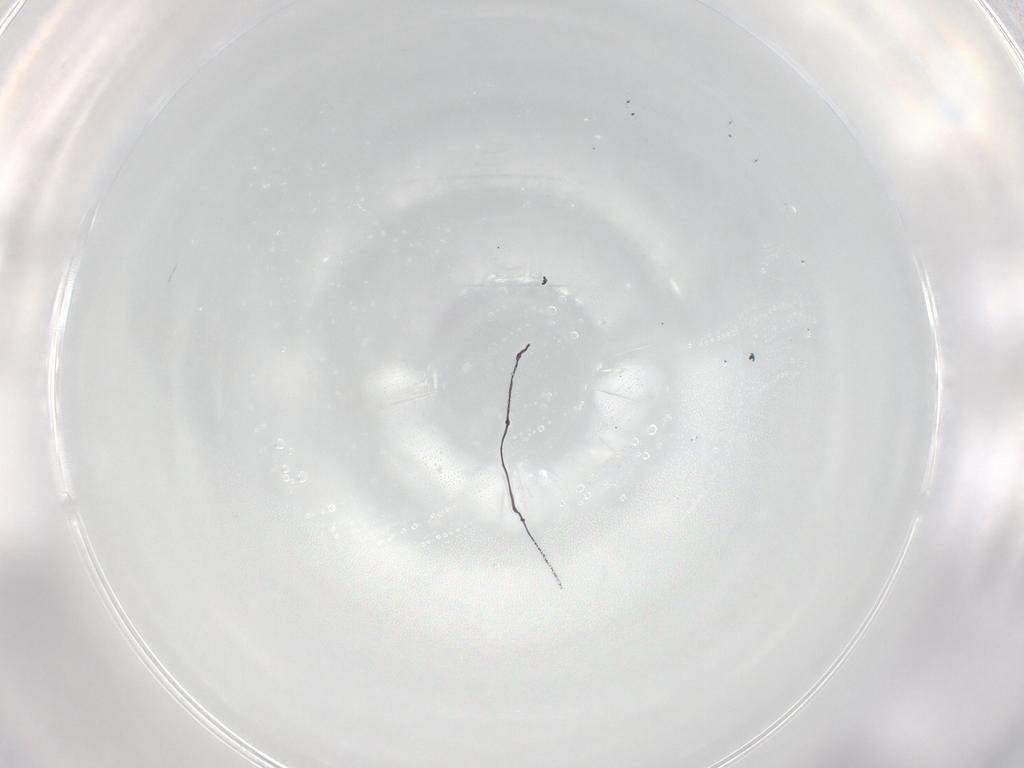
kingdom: Animalia
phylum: Arthropoda
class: Insecta
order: Diptera
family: Sciaridae
